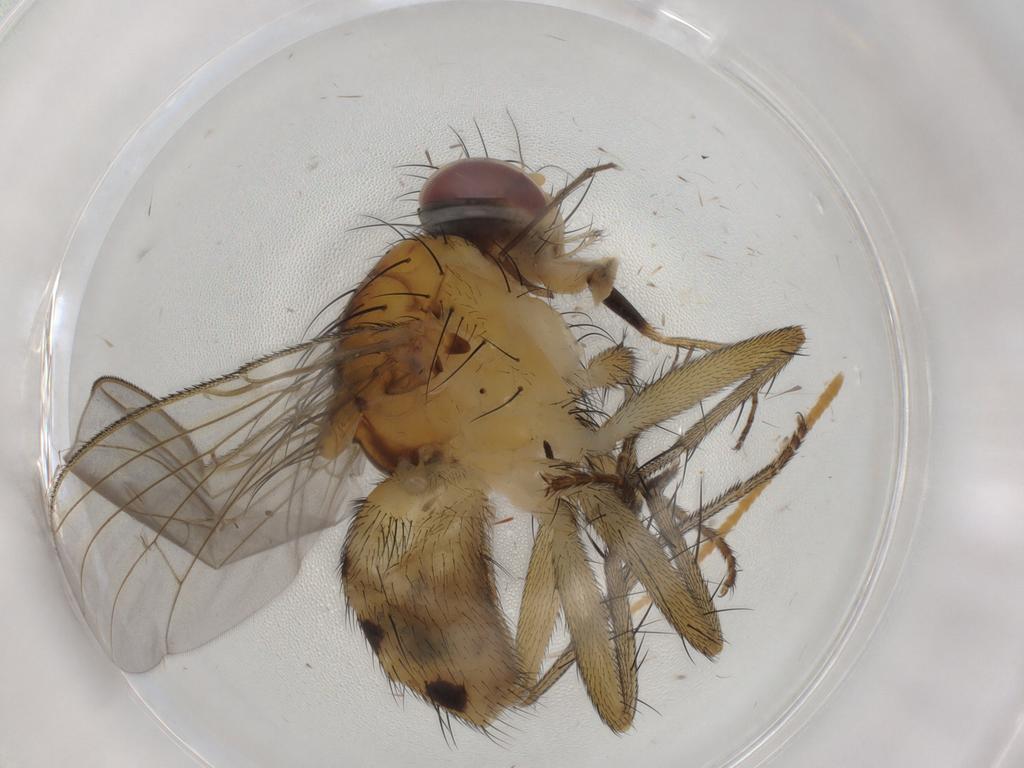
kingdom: Animalia
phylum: Arthropoda
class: Insecta
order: Diptera
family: Muscidae
